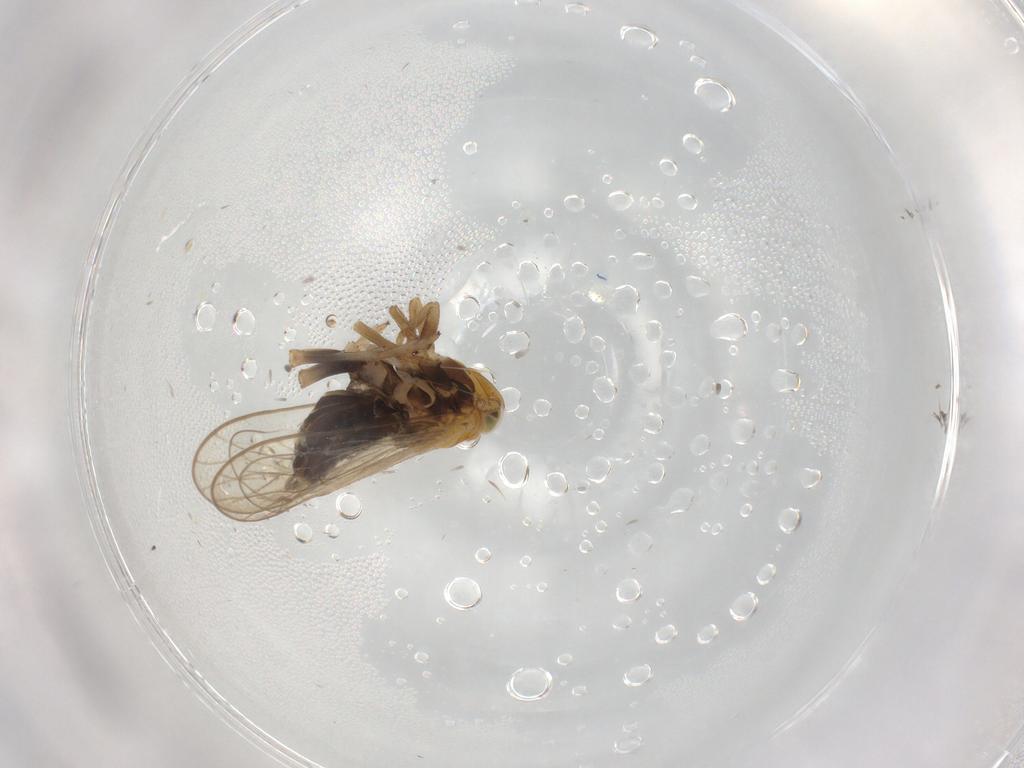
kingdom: Animalia
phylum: Arthropoda
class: Insecta
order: Hemiptera
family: Delphacidae
